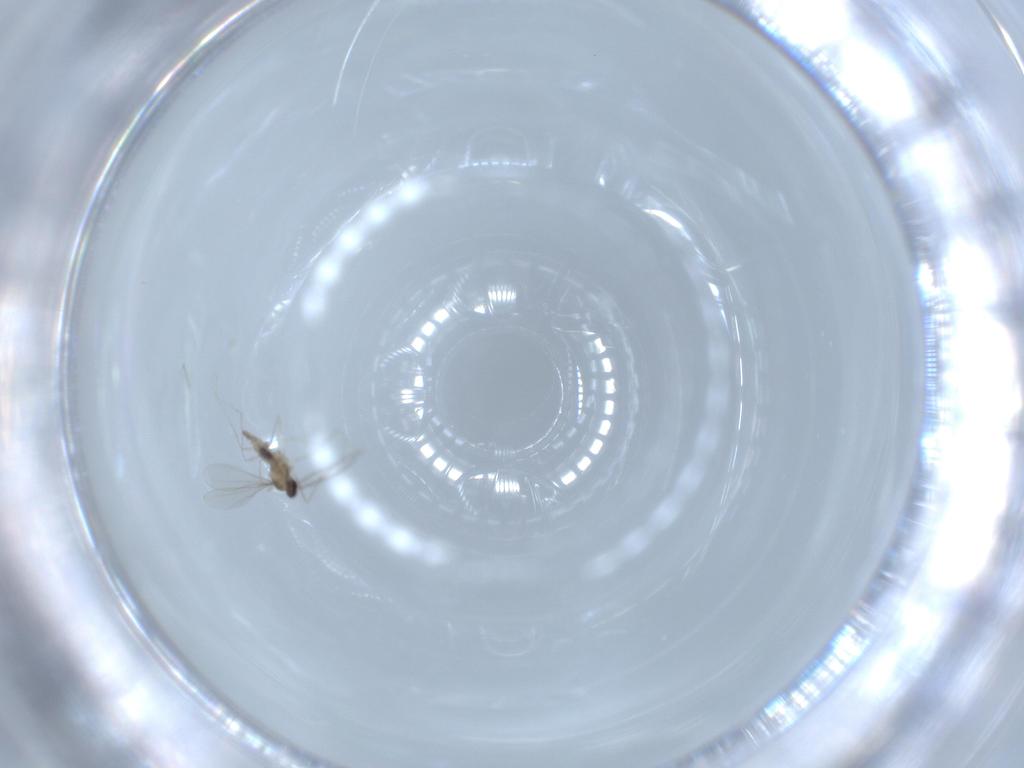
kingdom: Animalia
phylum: Arthropoda
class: Insecta
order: Diptera
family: Cecidomyiidae
